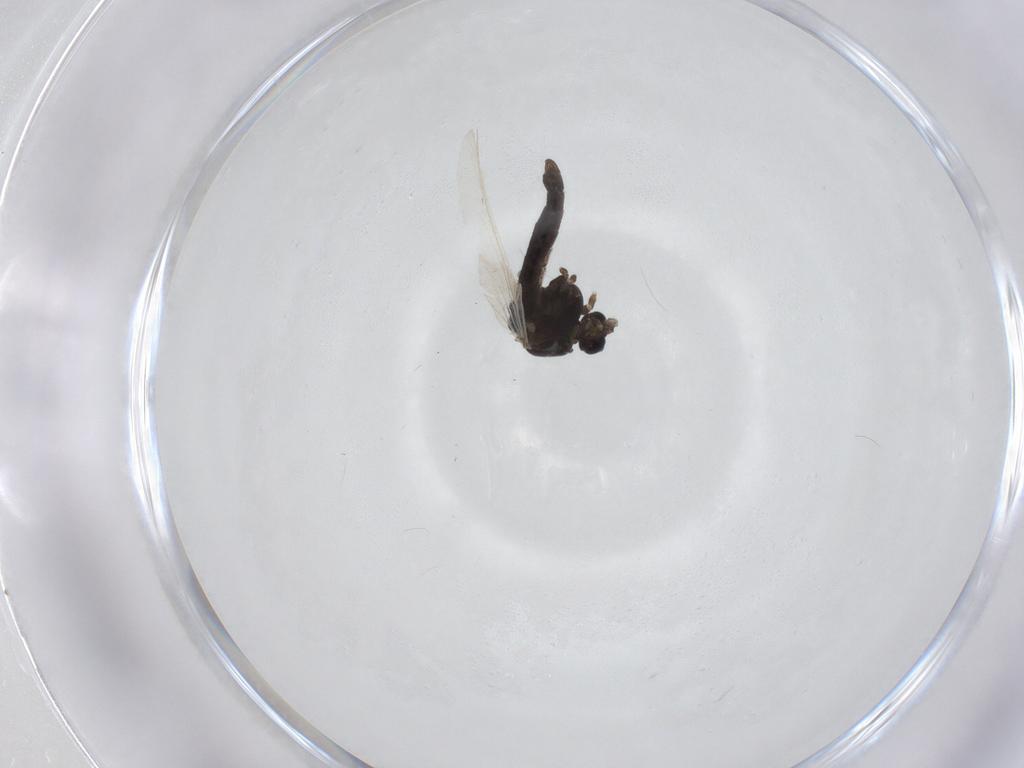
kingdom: Animalia
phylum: Arthropoda
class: Insecta
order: Diptera
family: Chironomidae
